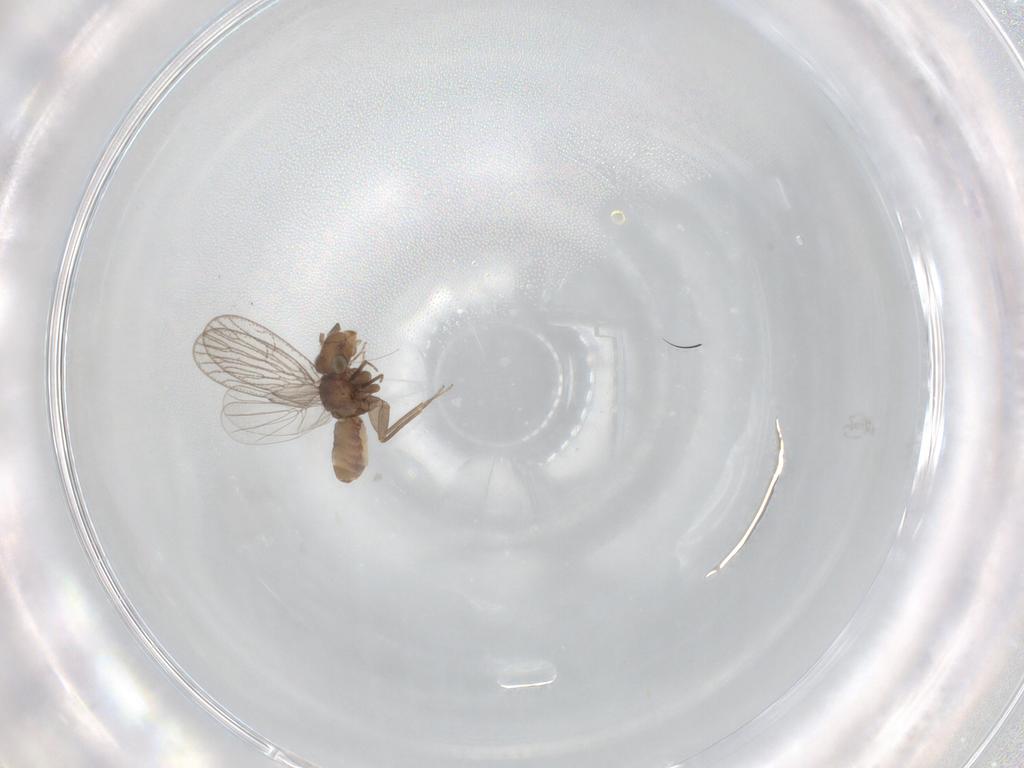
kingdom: Animalia
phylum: Arthropoda
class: Insecta
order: Psocodea
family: Psoquillidae
